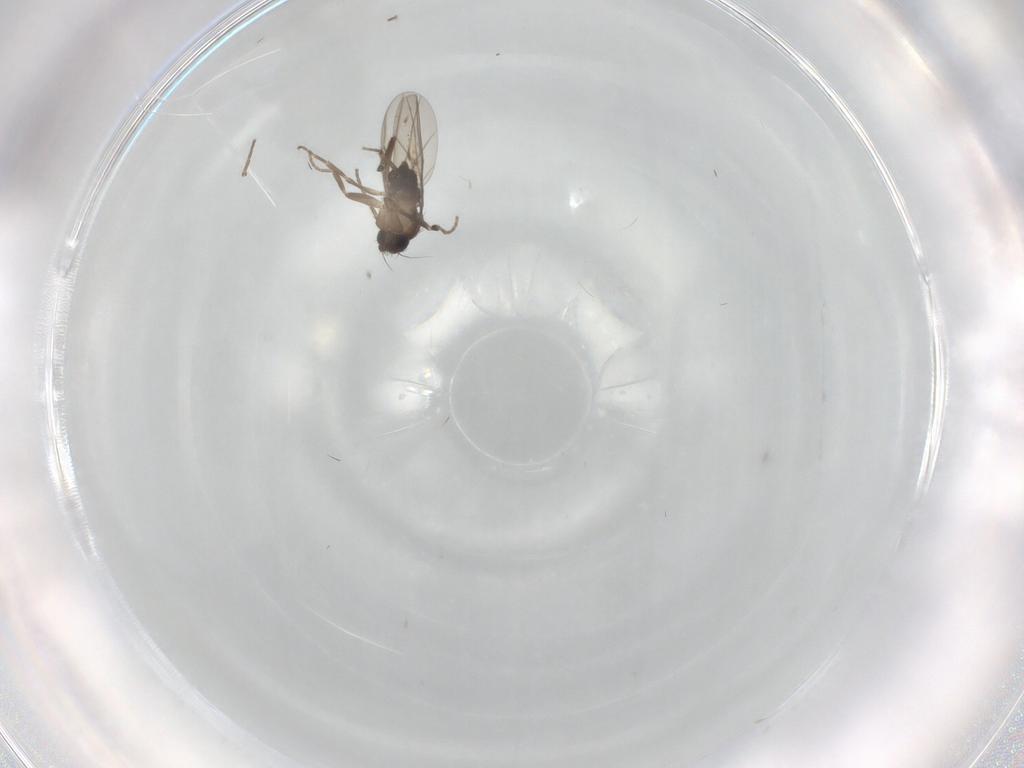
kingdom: Animalia
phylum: Arthropoda
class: Insecta
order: Diptera
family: Phoridae
